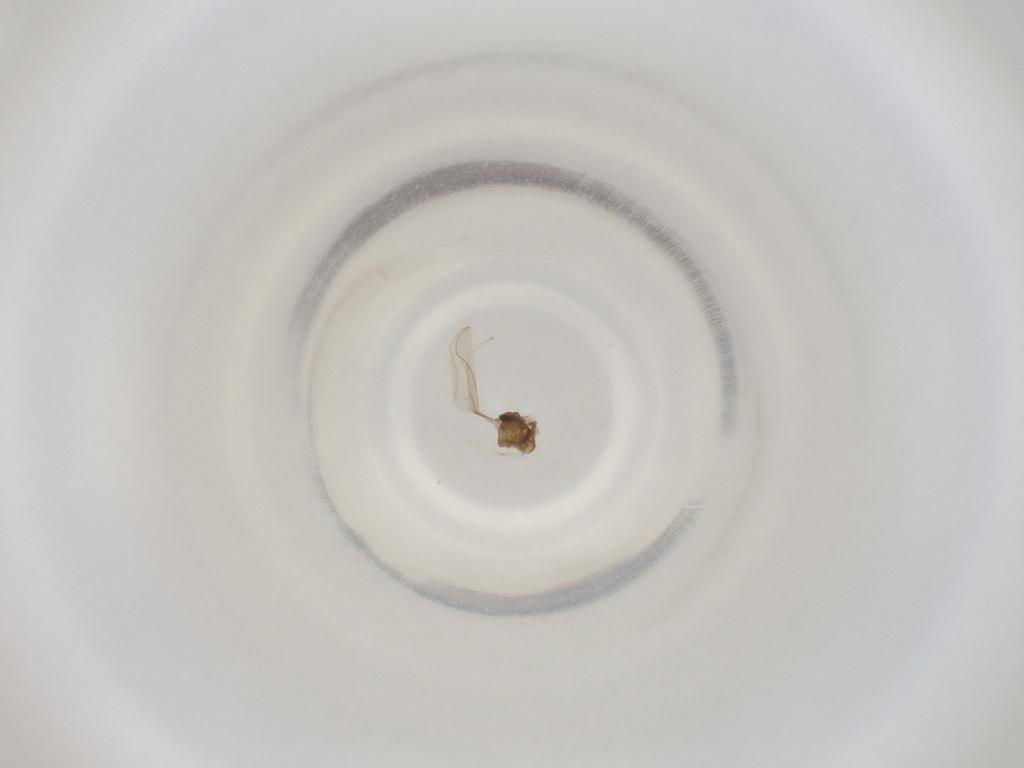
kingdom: Animalia
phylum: Arthropoda
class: Insecta
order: Diptera
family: Cecidomyiidae
